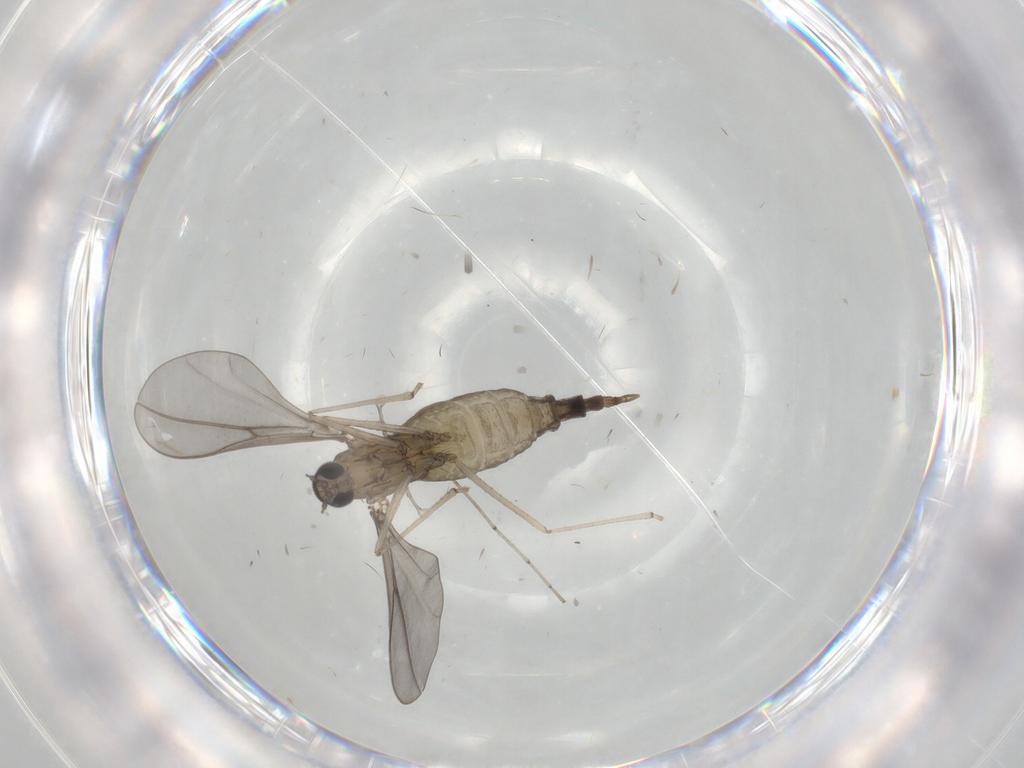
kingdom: Animalia
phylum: Arthropoda
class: Insecta
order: Diptera
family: Cecidomyiidae
